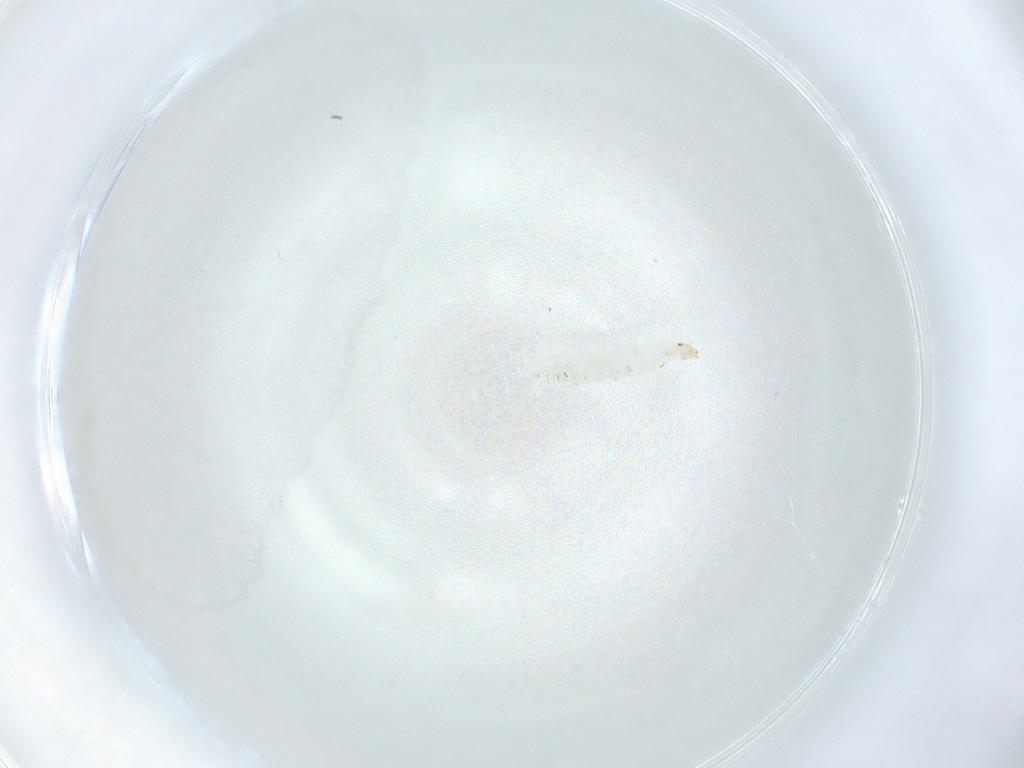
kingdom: Animalia
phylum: Arthropoda
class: Insecta
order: Diptera
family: Stratiomyidae
